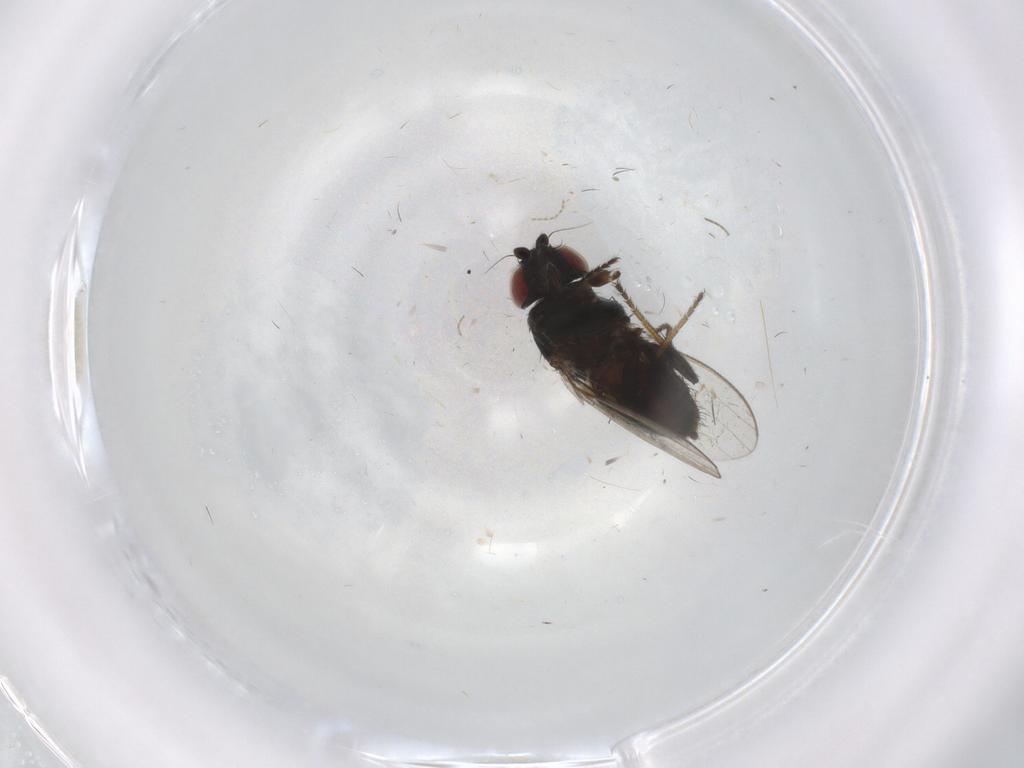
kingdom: Animalia
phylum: Arthropoda
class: Insecta
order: Diptera
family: Milichiidae
